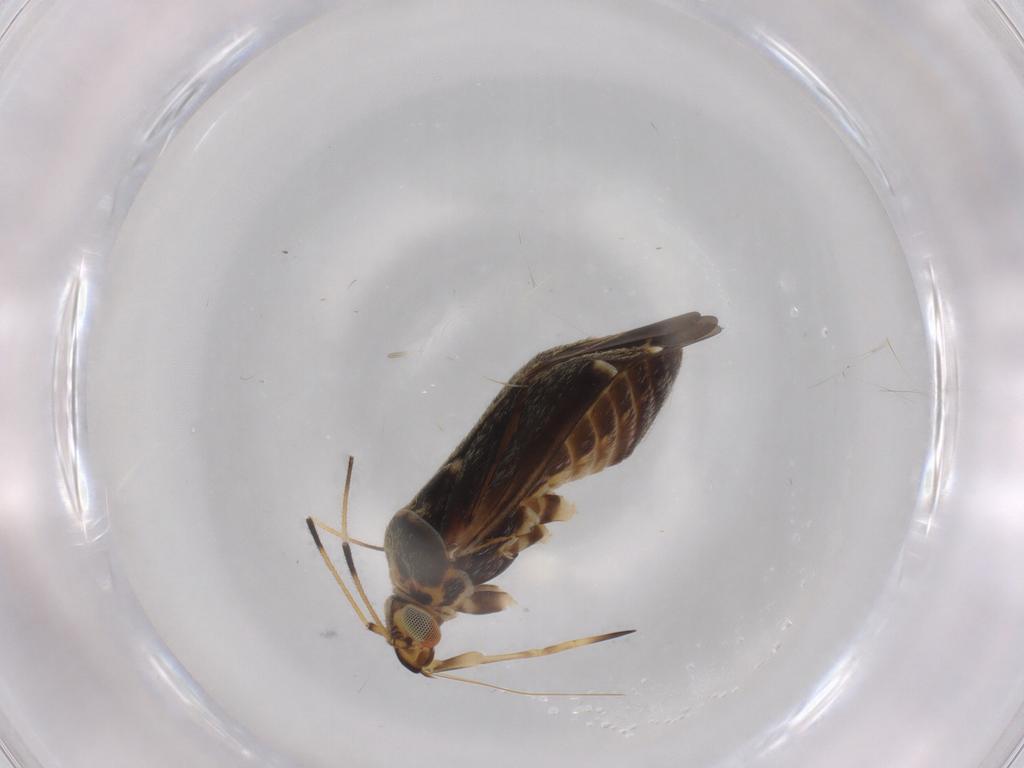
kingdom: Animalia
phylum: Arthropoda
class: Insecta
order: Hemiptera
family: Miridae
